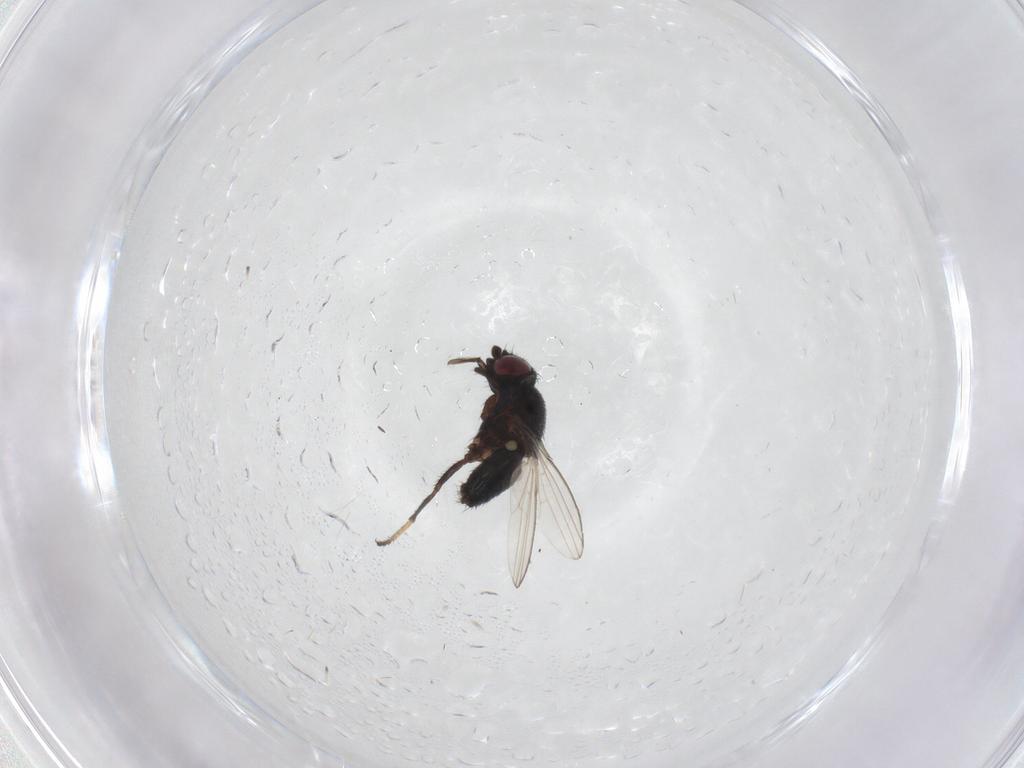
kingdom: Animalia
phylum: Arthropoda
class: Insecta
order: Diptera
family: Milichiidae
